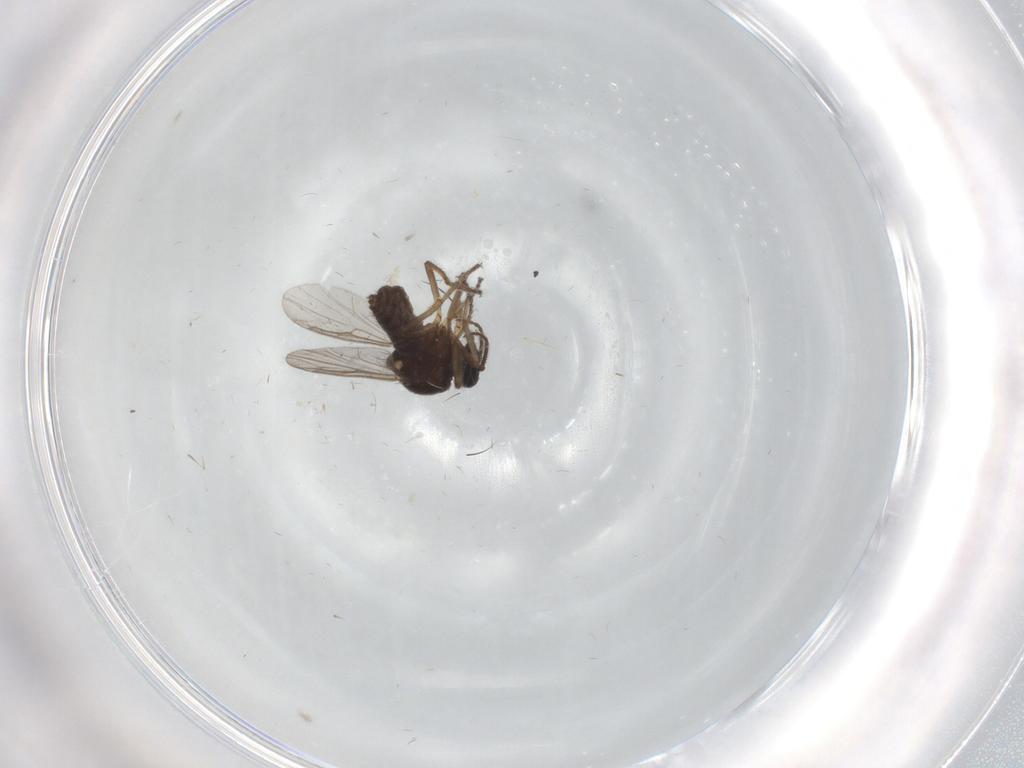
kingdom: Animalia
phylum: Arthropoda
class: Insecta
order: Diptera
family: Ceratopogonidae
